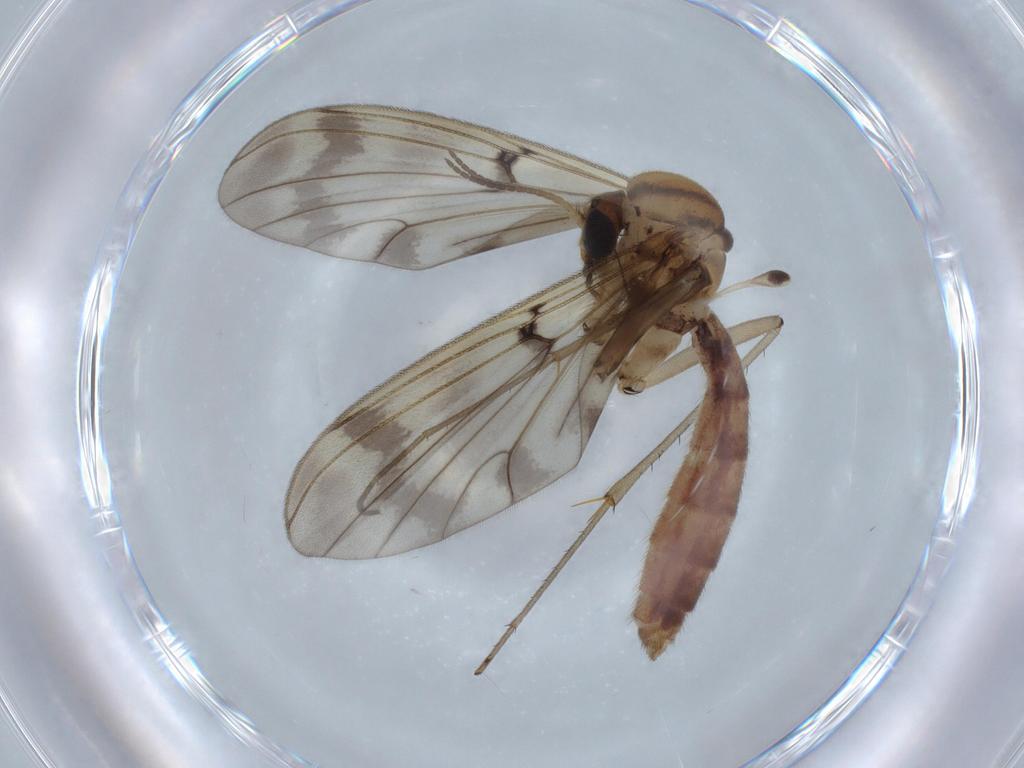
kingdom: Animalia
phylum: Arthropoda
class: Insecta
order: Diptera
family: Mycetophilidae
